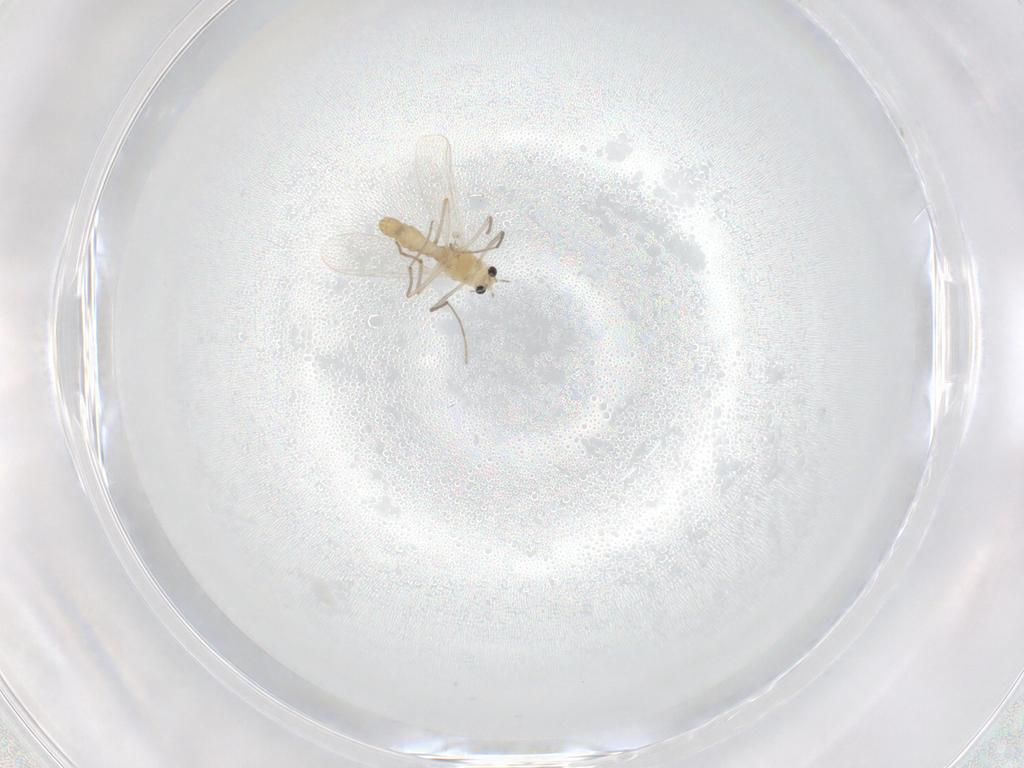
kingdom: Animalia
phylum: Arthropoda
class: Insecta
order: Diptera
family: Chironomidae
